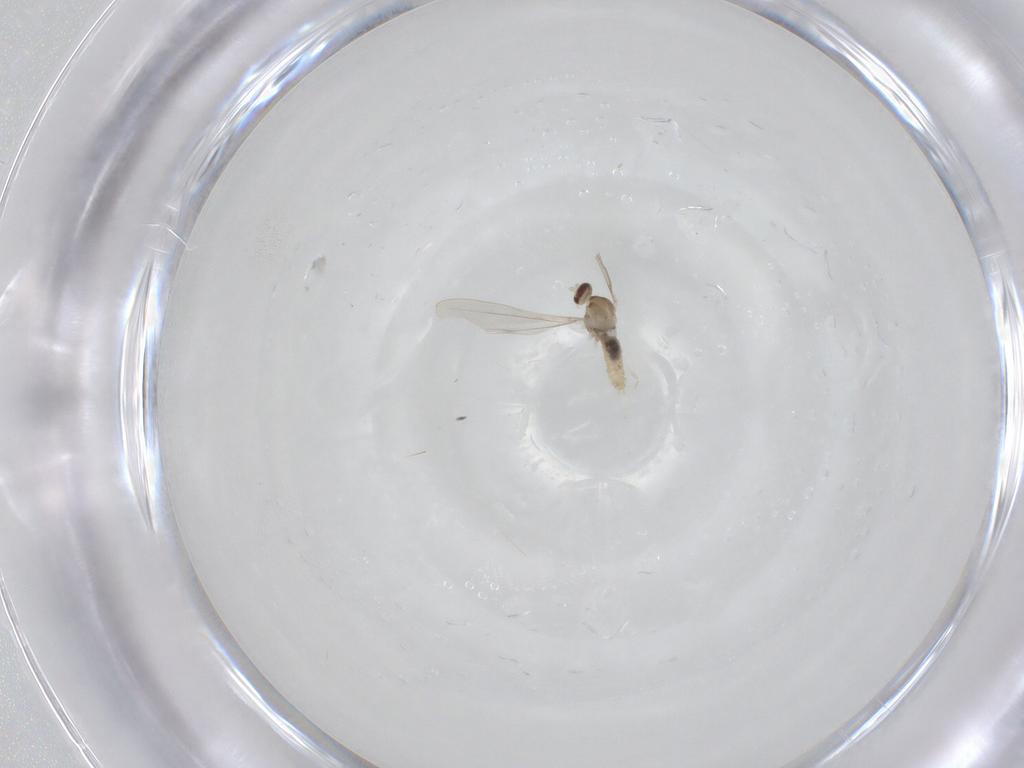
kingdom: Animalia
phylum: Arthropoda
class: Insecta
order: Diptera
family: Cecidomyiidae
